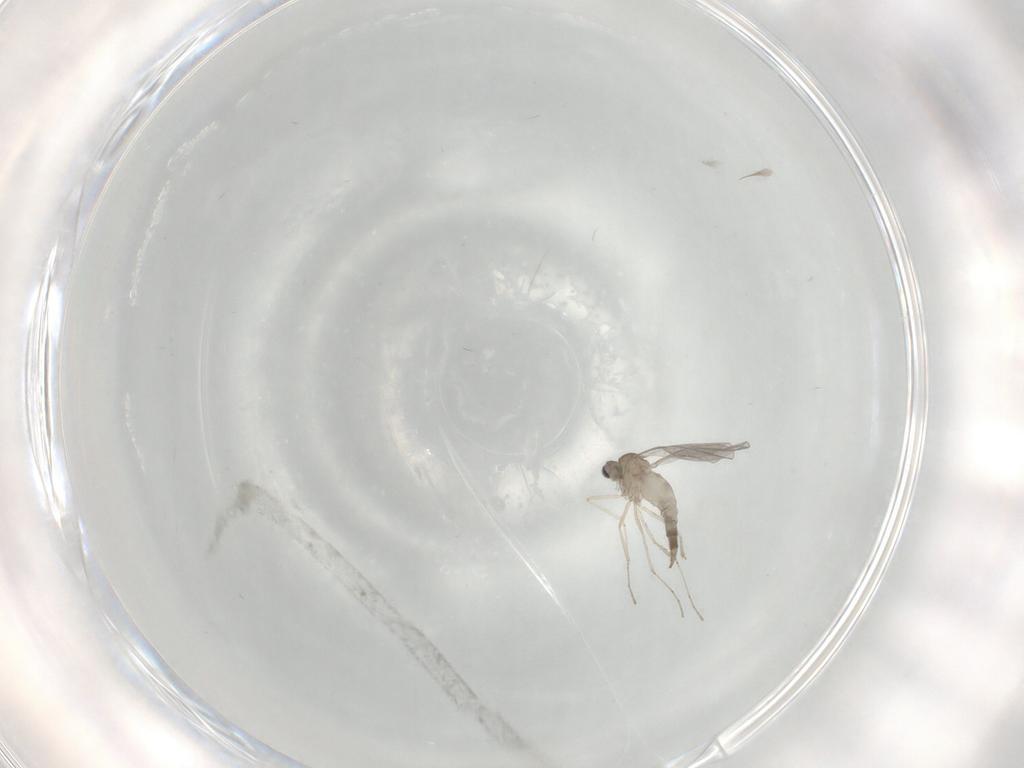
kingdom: Animalia
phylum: Arthropoda
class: Insecta
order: Diptera
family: Cecidomyiidae
